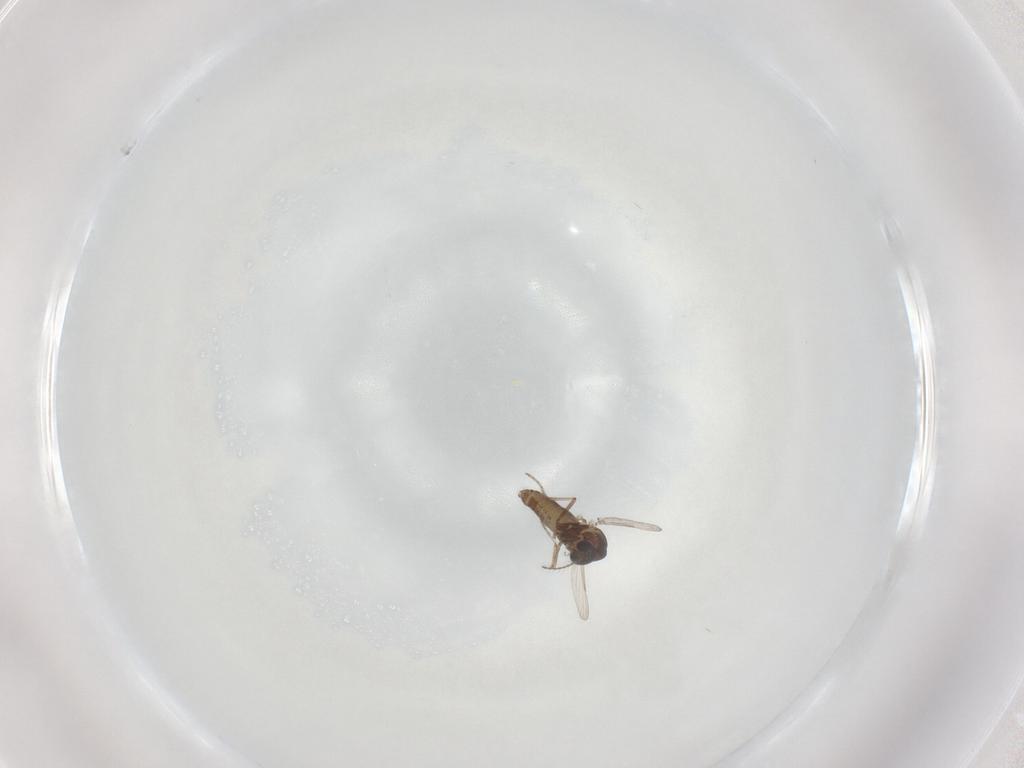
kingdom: Animalia
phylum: Arthropoda
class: Insecta
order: Diptera
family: Ceratopogonidae
